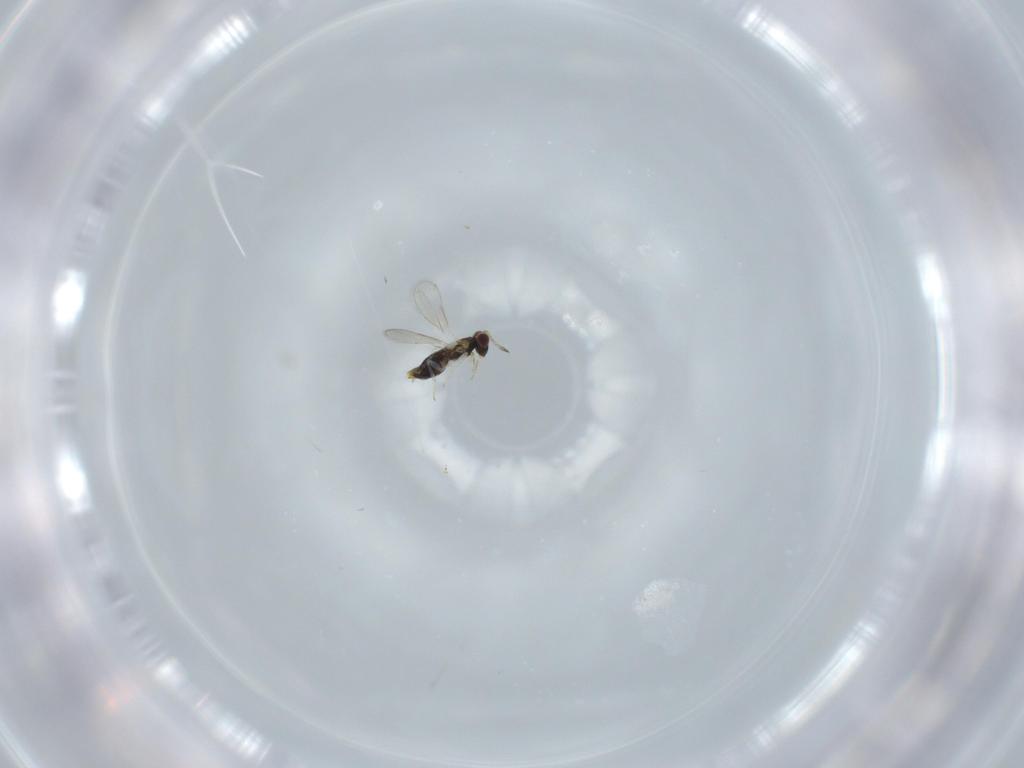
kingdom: Animalia
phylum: Arthropoda
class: Insecta
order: Hymenoptera
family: Aphelinidae
